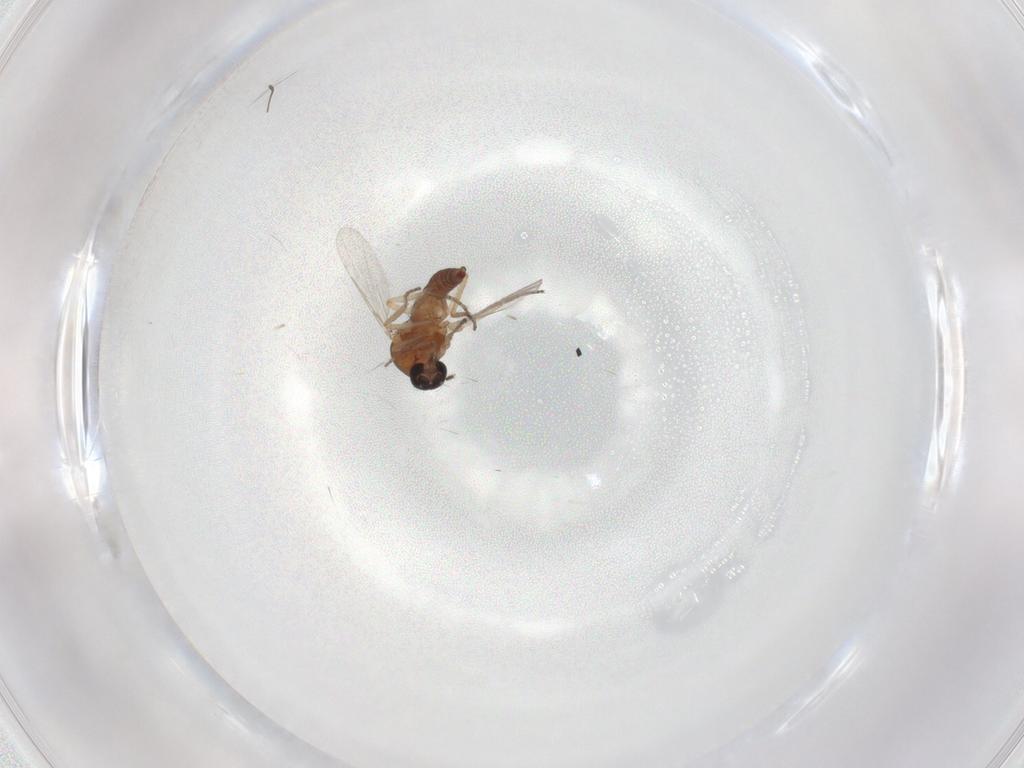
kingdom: Animalia
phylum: Arthropoda
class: Insecta
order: Diptera
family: Ceratopogonidae
